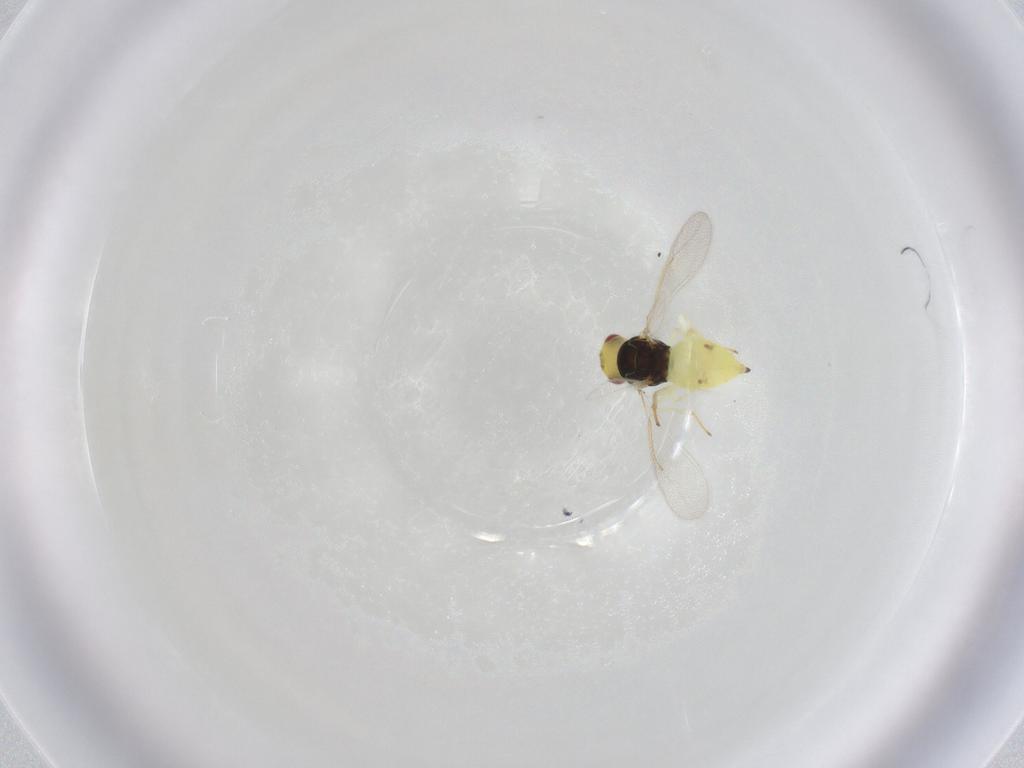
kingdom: Animalia
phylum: Arthropoda
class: Insecta
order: Hymenoptera
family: Eulophidae
